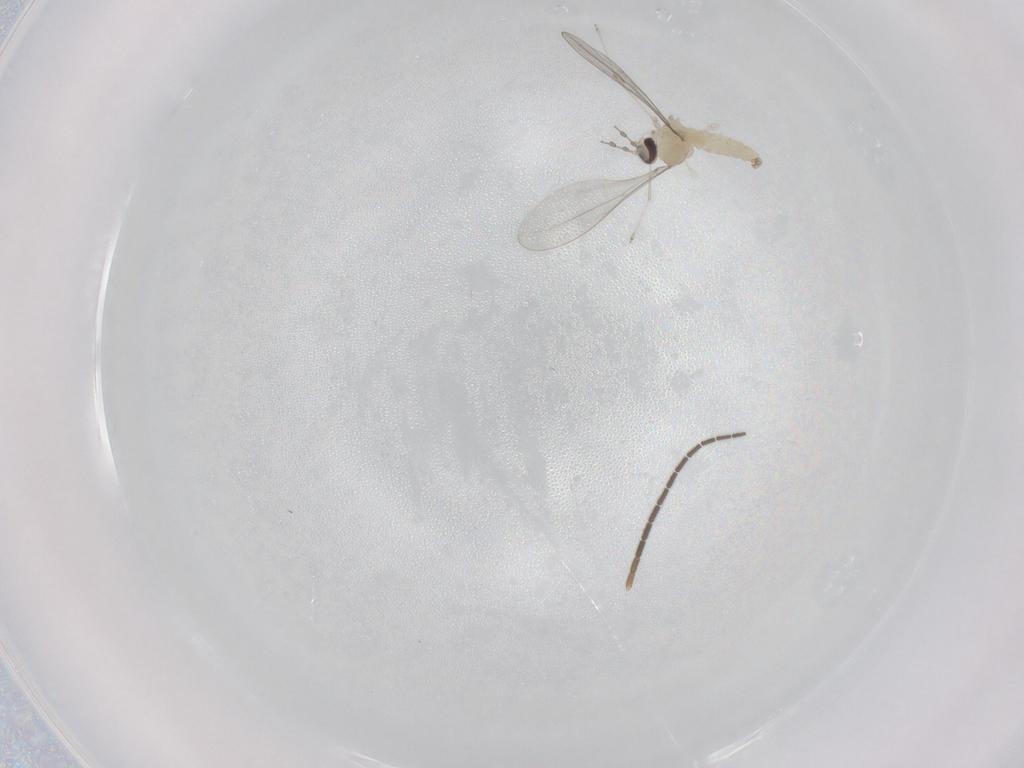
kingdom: Animalia
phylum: Arthropoda
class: Insecta
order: Diptera
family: Cecidomyiidae
